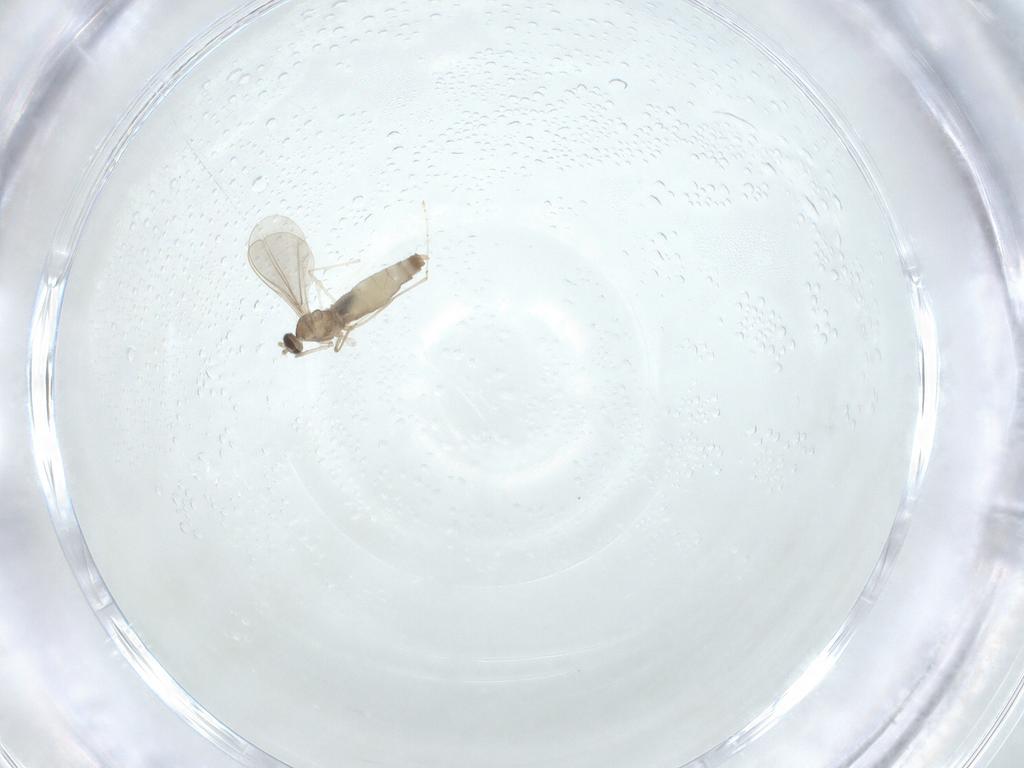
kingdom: Animalia
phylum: Arthropoda
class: Insecta
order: Diptera
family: Cecidomyiidae
